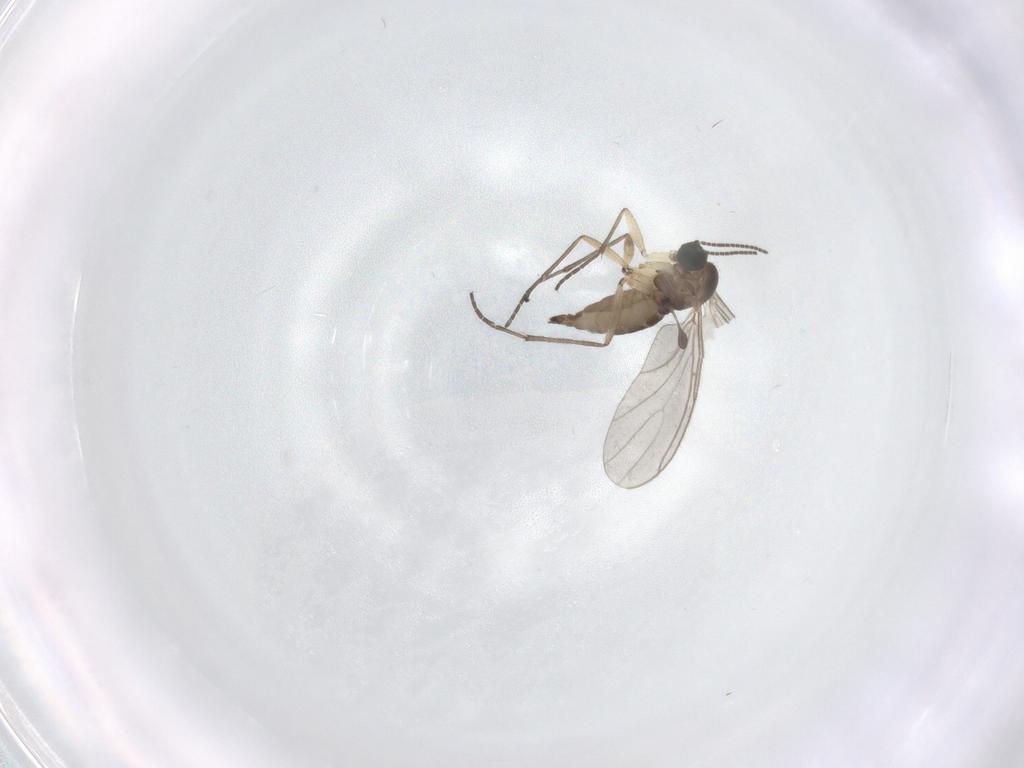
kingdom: Animalia
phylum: Arthropoda
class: Insecta
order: Diptera
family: Sciaridae
